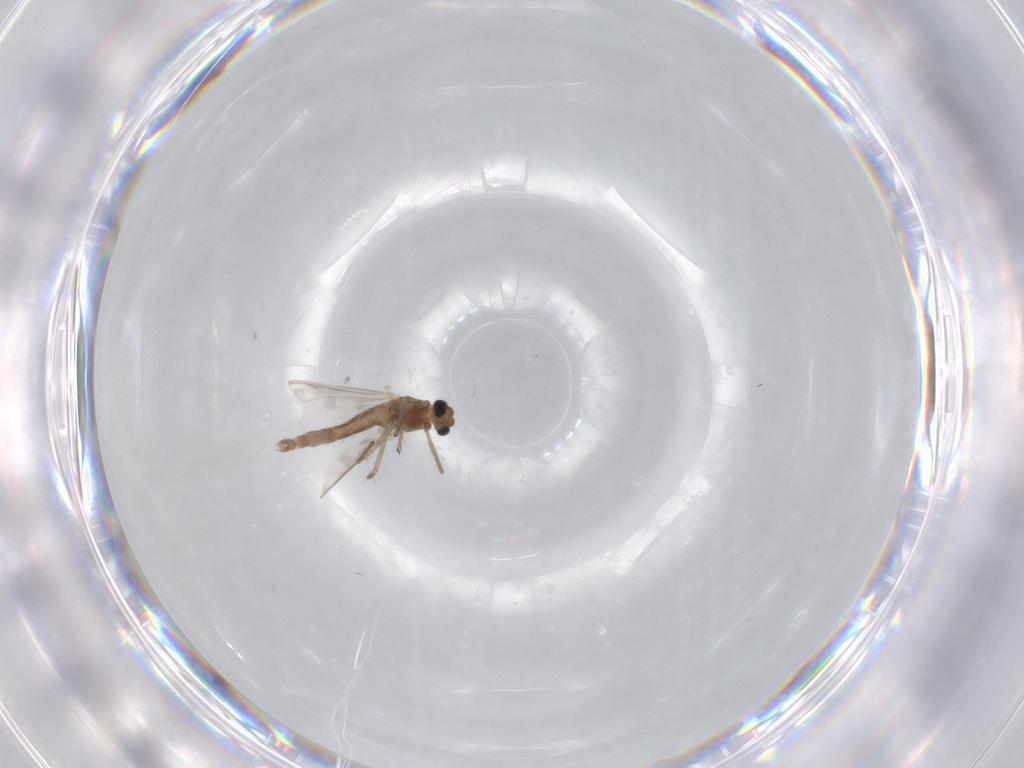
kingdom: Animalia
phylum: Arthropoda
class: Insecta
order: Diptera
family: Chironomidae
